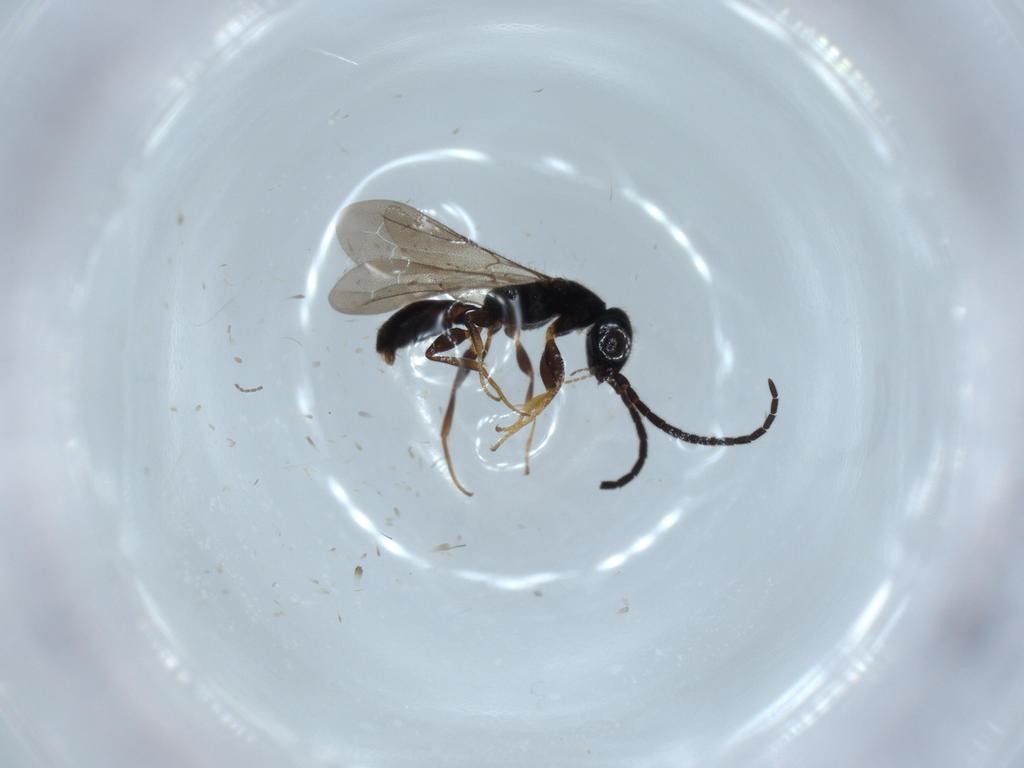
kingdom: Animalia
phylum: Arthropoda
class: Insecta
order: Hymenoptera
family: Bethylidae
